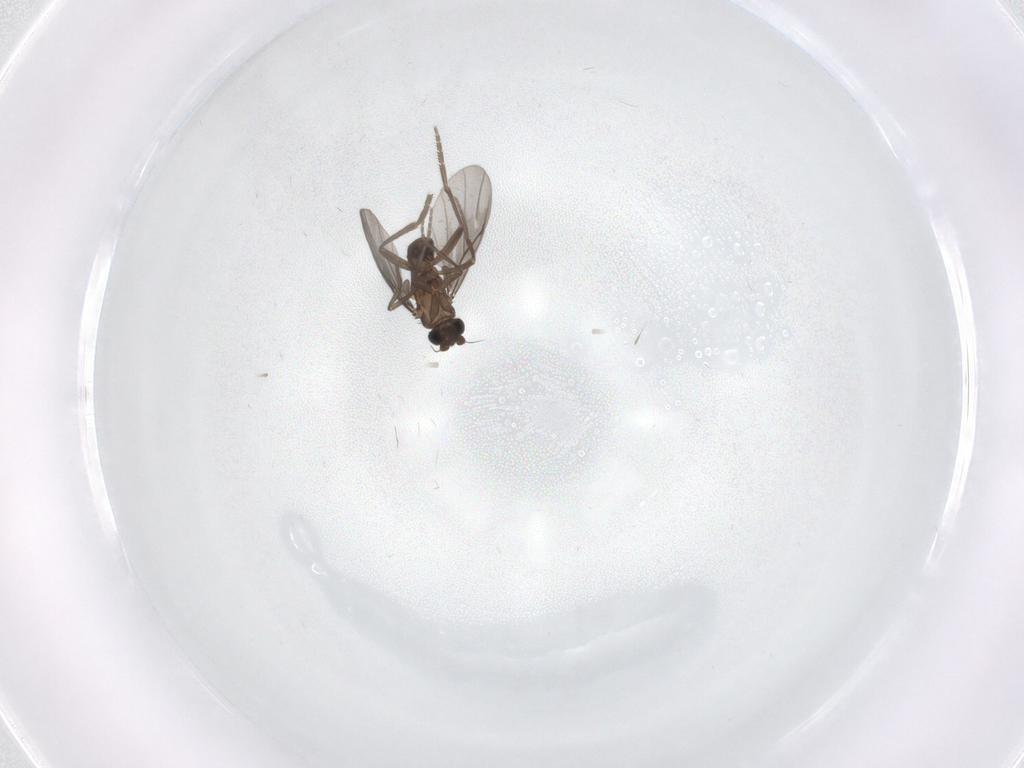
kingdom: Animalia
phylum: Arthropoda
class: Insecta
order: Diptera
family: Phoridae
